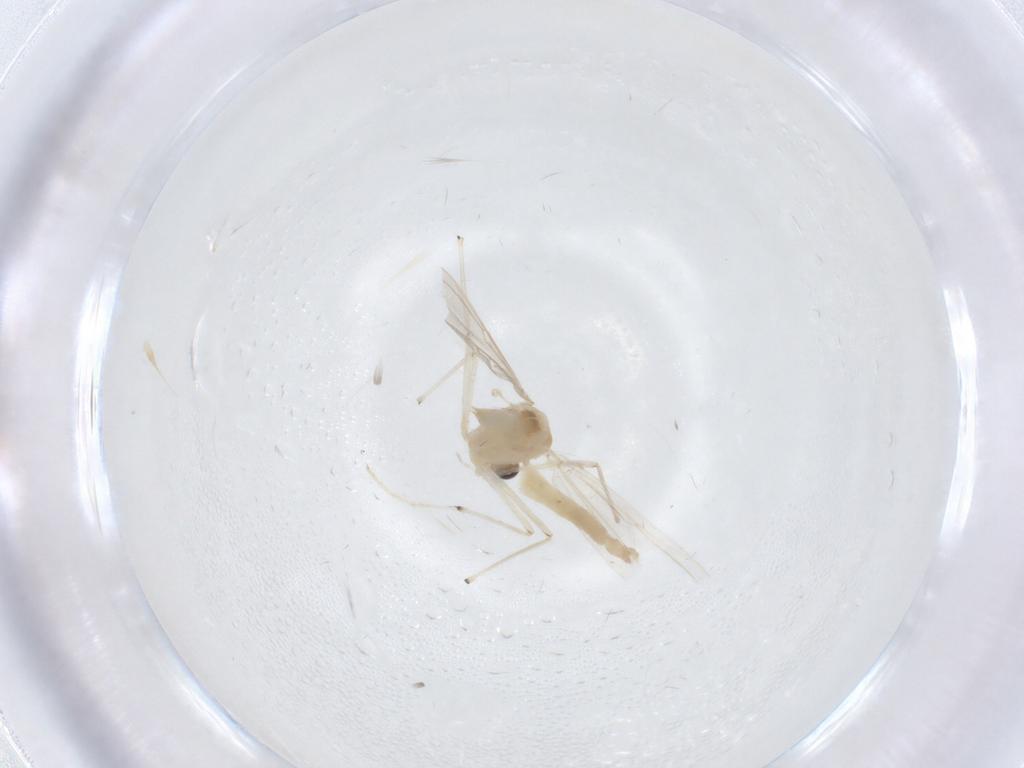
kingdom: Animalia
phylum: Arthropoda
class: Insecta
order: Diptera
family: Chironomidae
